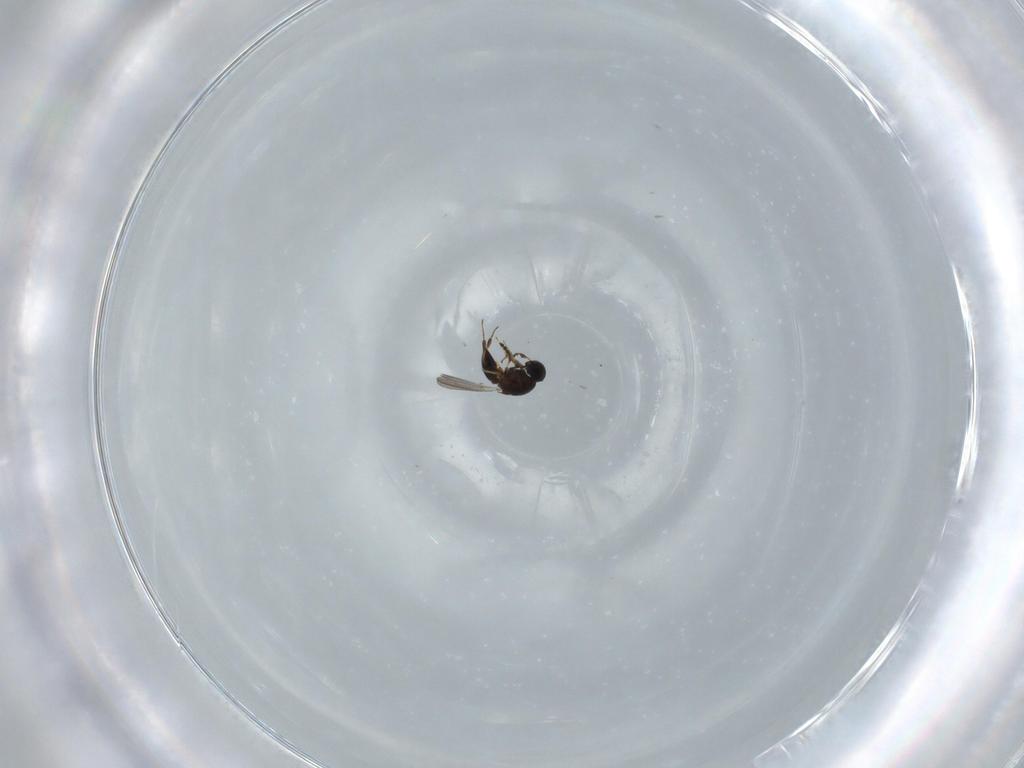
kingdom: Animalia
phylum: Arthropoda
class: Insecta
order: Hymenoptera
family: Platygastridae
